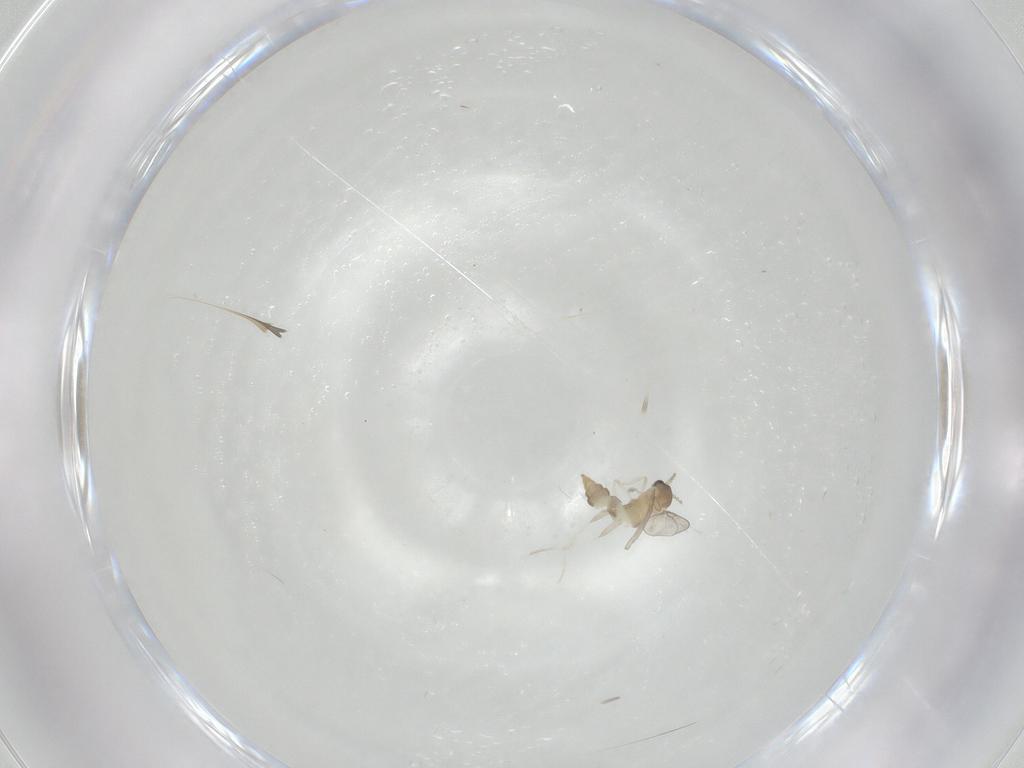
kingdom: Animalia
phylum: Arthropoda
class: Insecta
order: Diptera
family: Cecidomyiidae
